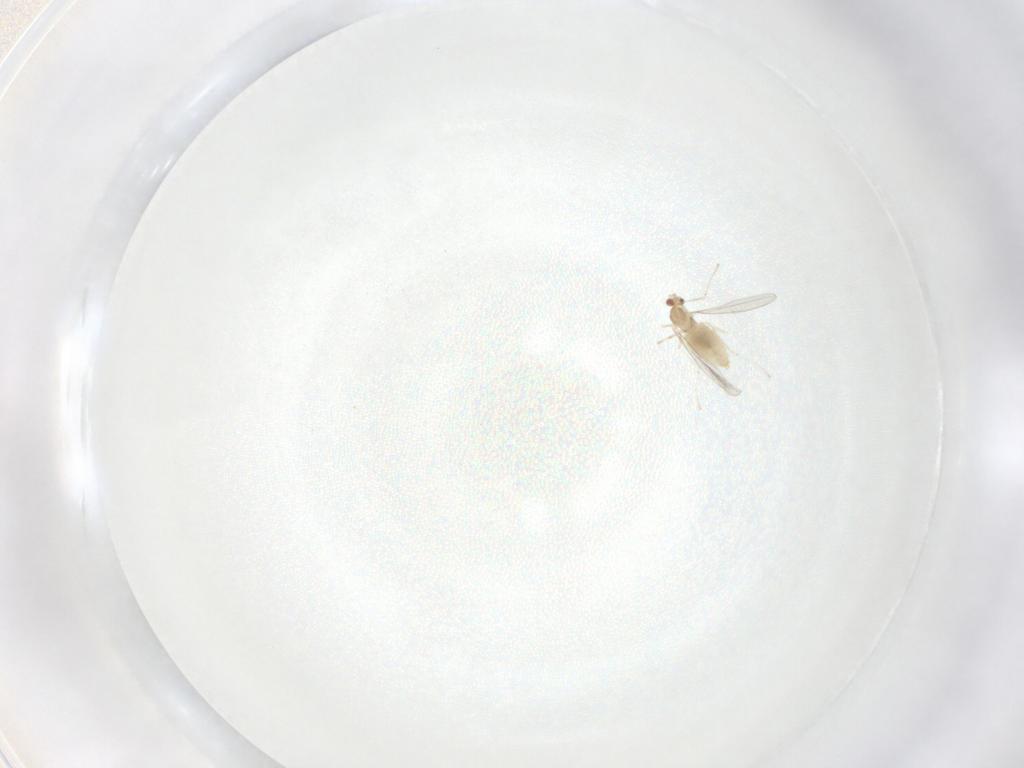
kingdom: Animalia
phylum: Arthropoda
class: Insecta
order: Diptera
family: Cecidomyiidae
